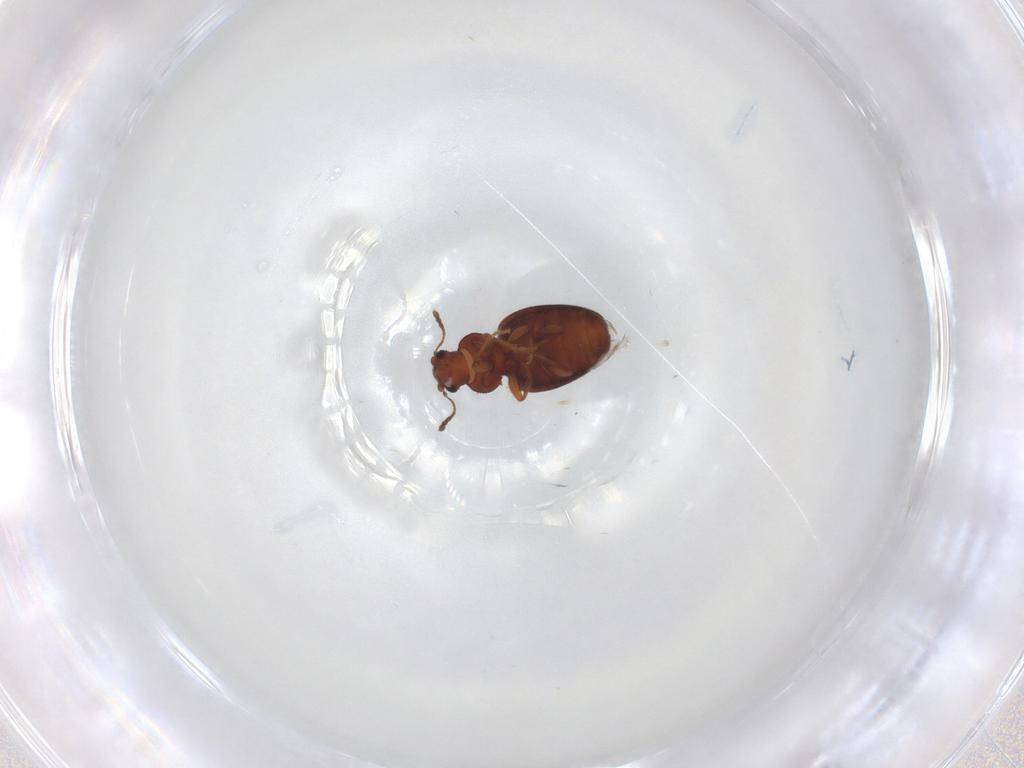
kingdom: Animalia
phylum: Arthropoda
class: Insecta
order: Coleoptera
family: Latridiidae
